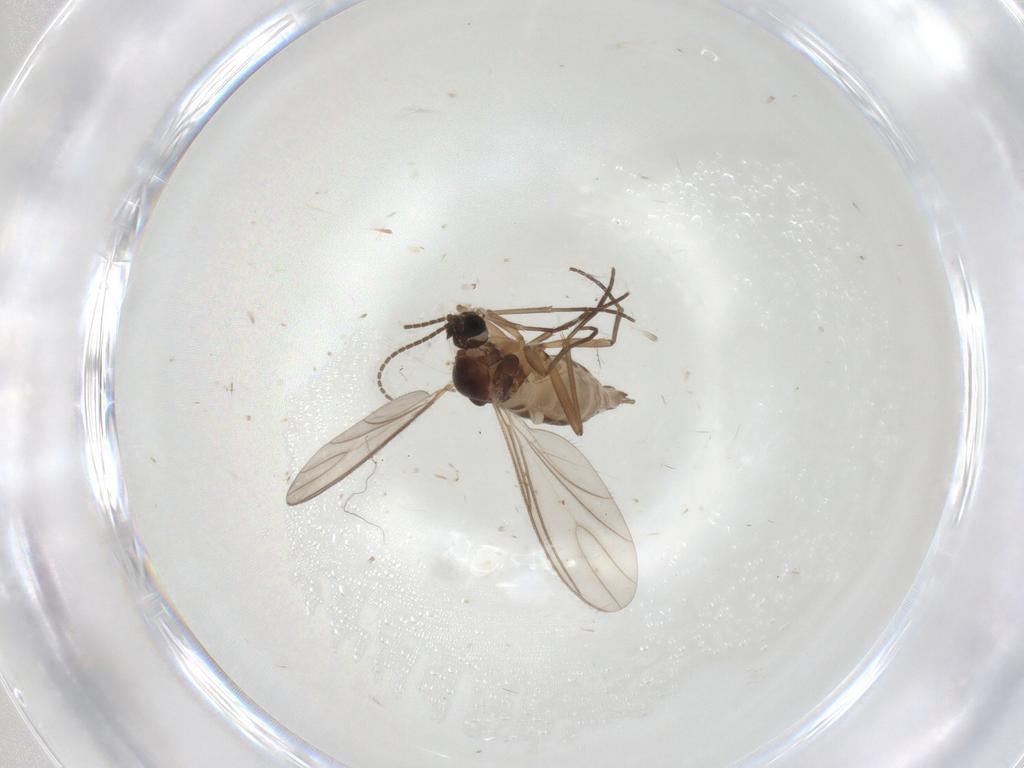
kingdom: Animalia
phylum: Arthropoda
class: Insecta
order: Diptera
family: Sciaridae
